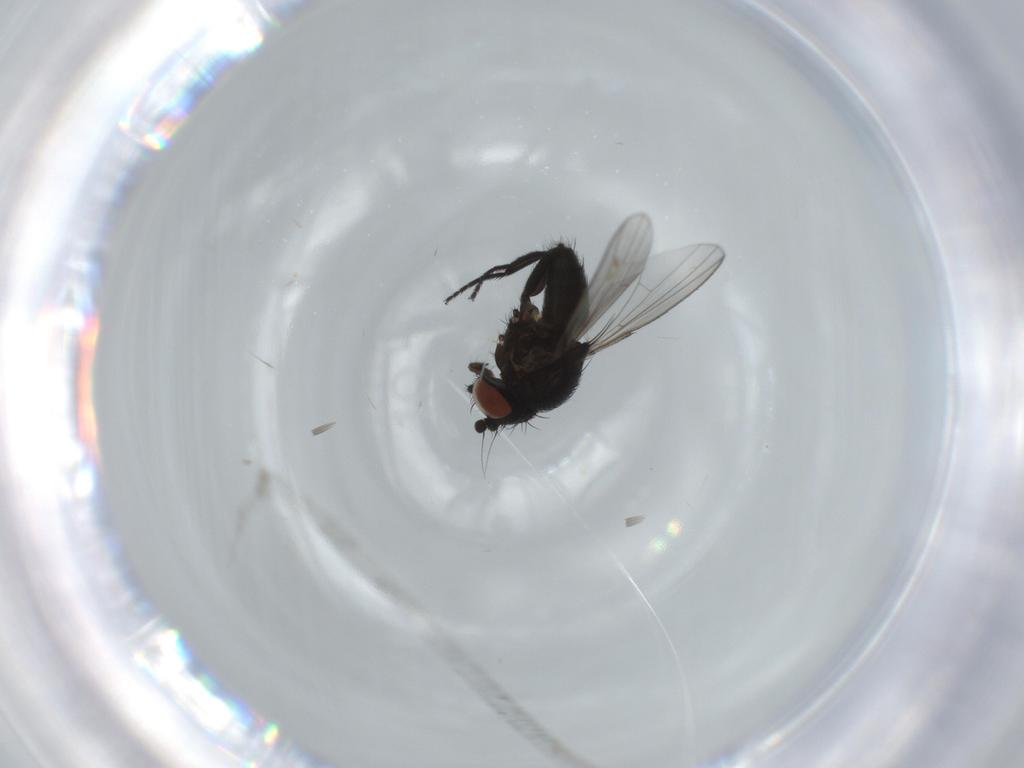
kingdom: Animalia
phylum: Arthropoda
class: Insecta
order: Diptera
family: Milichiidae
